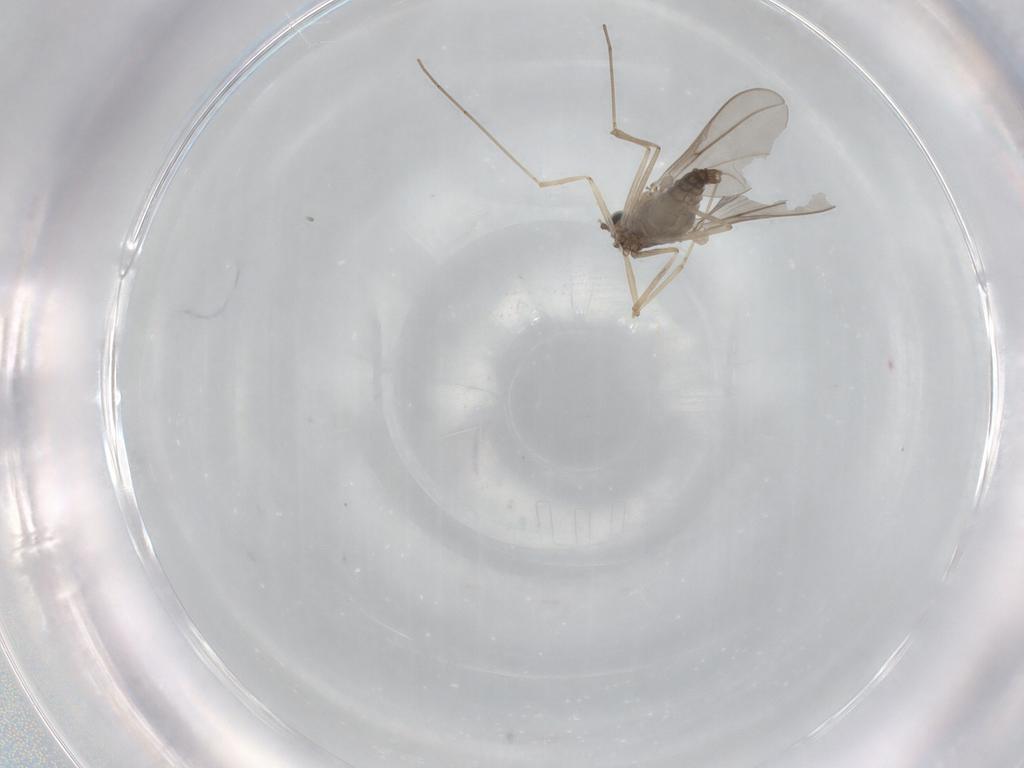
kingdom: Animalia
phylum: Arthropoda
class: Insecta
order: Diptera
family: Cecidomyiidae
